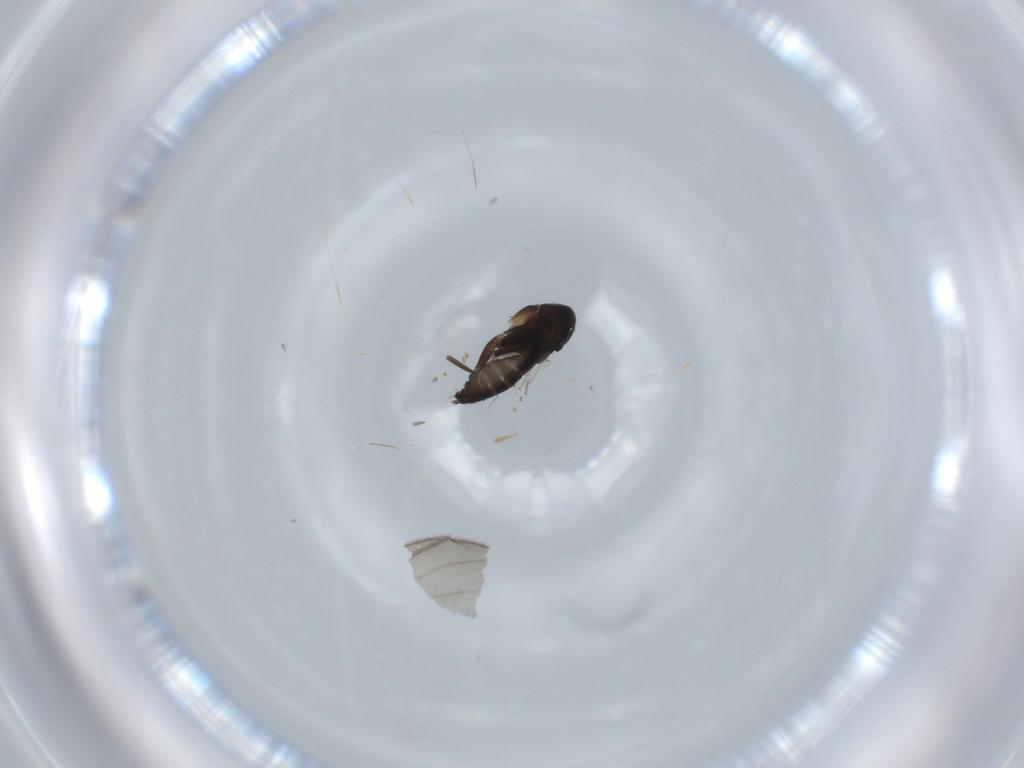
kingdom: Animalia
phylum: Arthropoda
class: Insecta
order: Diptera
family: Phoridae
